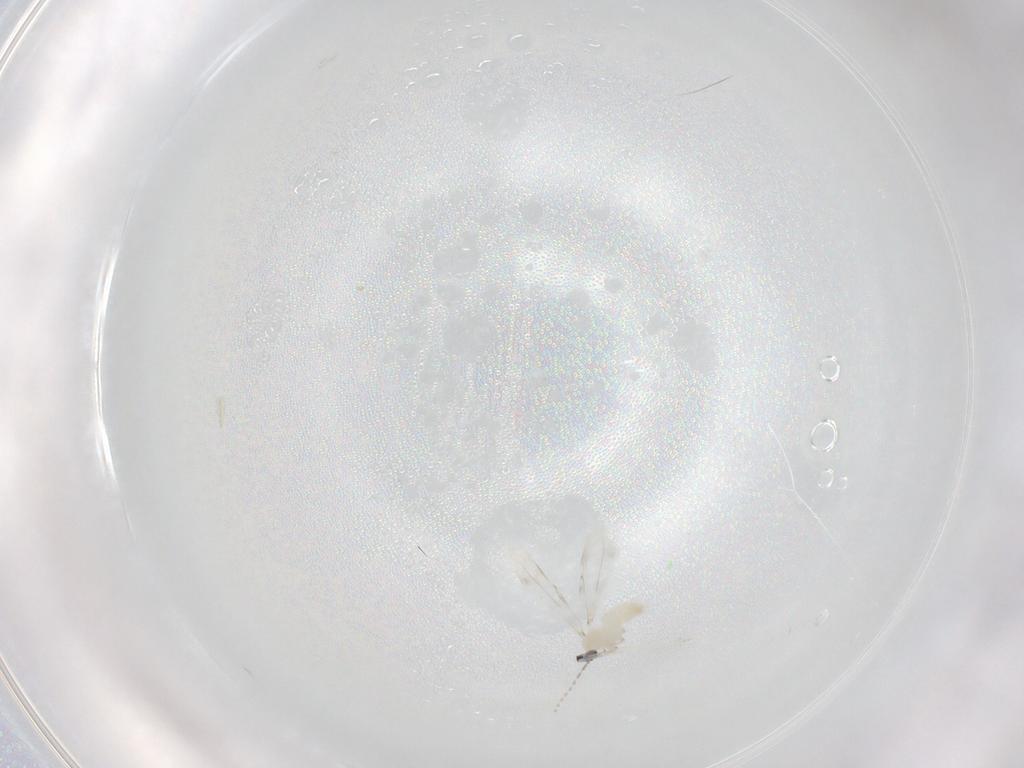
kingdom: Animalia
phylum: Arthropoda
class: Insecta
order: Diptera
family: Cecidomyiidae
